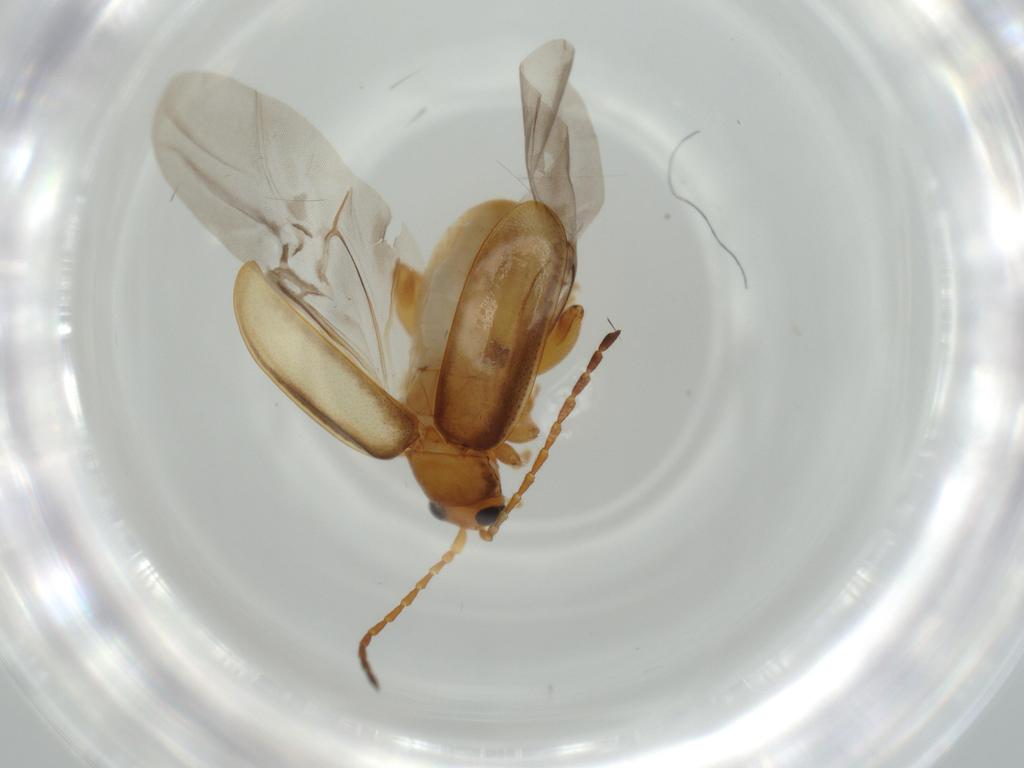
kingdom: Animalia
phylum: Arthropoda
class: Insecta
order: Coleoptera
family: Chrysomelidae
